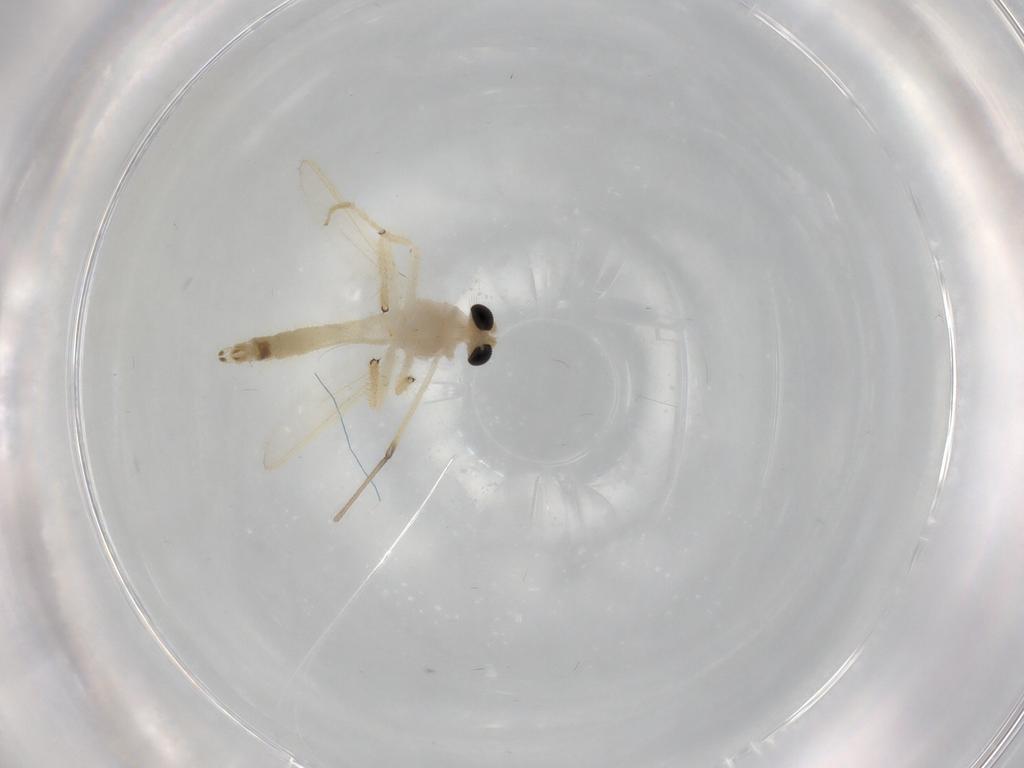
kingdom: Animalia
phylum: Arthropoda
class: Insecta
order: Diptera
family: Chironomidae
